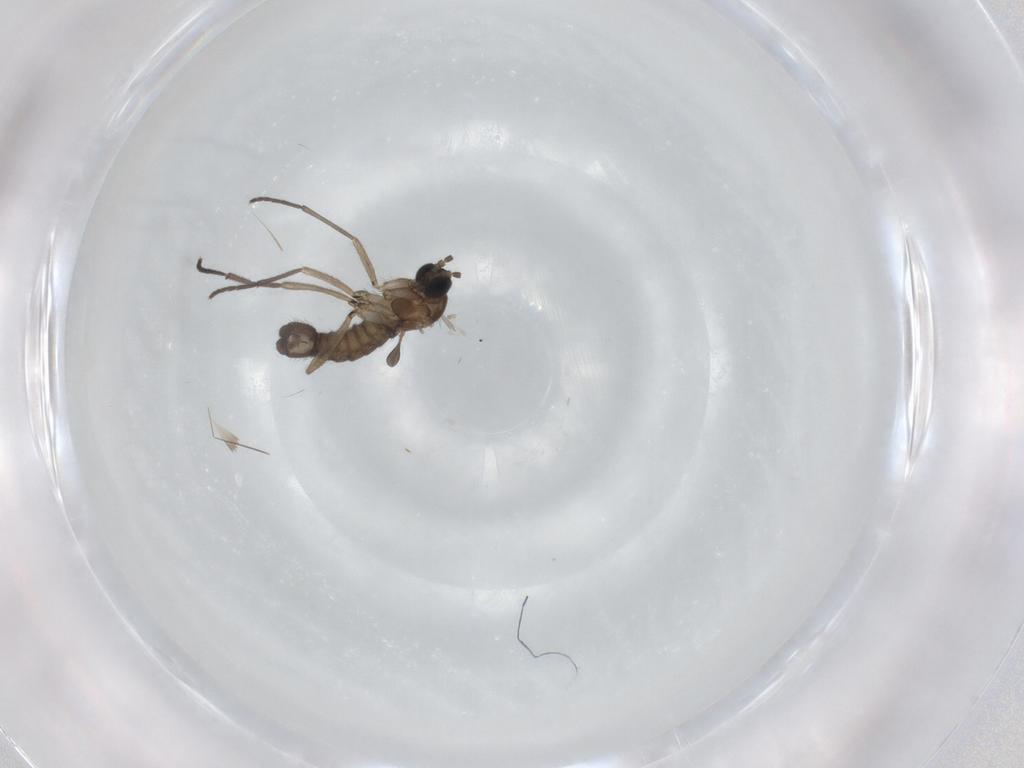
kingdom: Animalia
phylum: Arthropoda
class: Insecta
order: Diptera
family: Sciaridae
